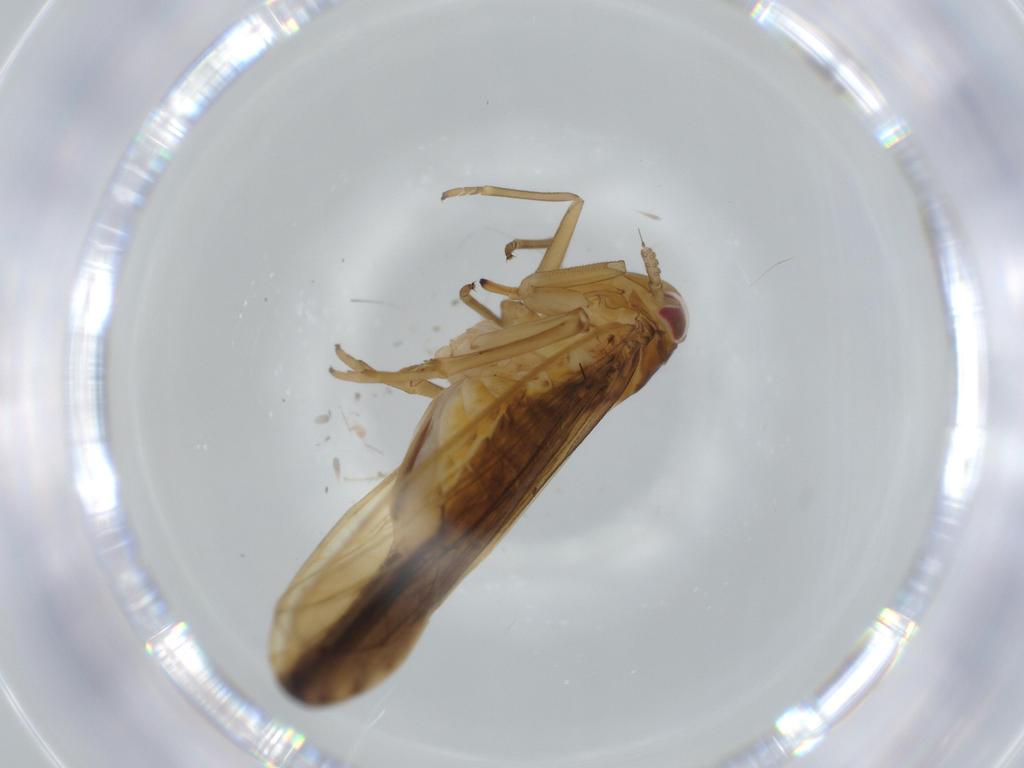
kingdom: Animalia
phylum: Arthropoda
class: Insecta
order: Hemiptera
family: Delphacidae
